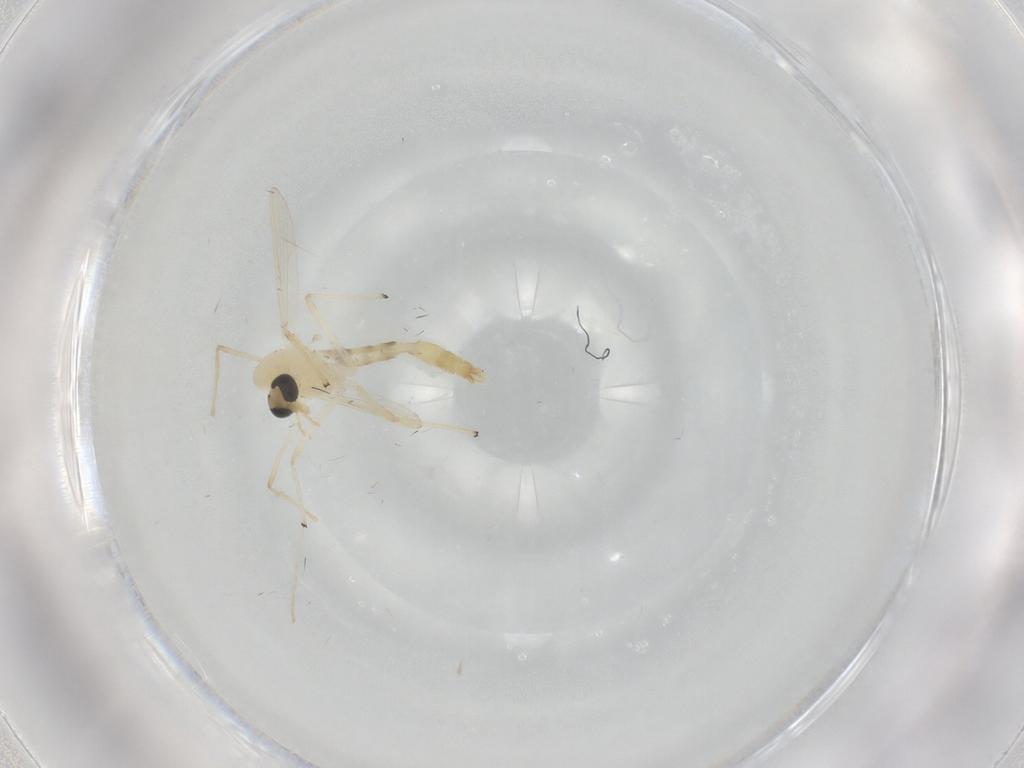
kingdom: Animalia
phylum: Arthropoda
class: Insecta
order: Diptera
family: Chironomidae
